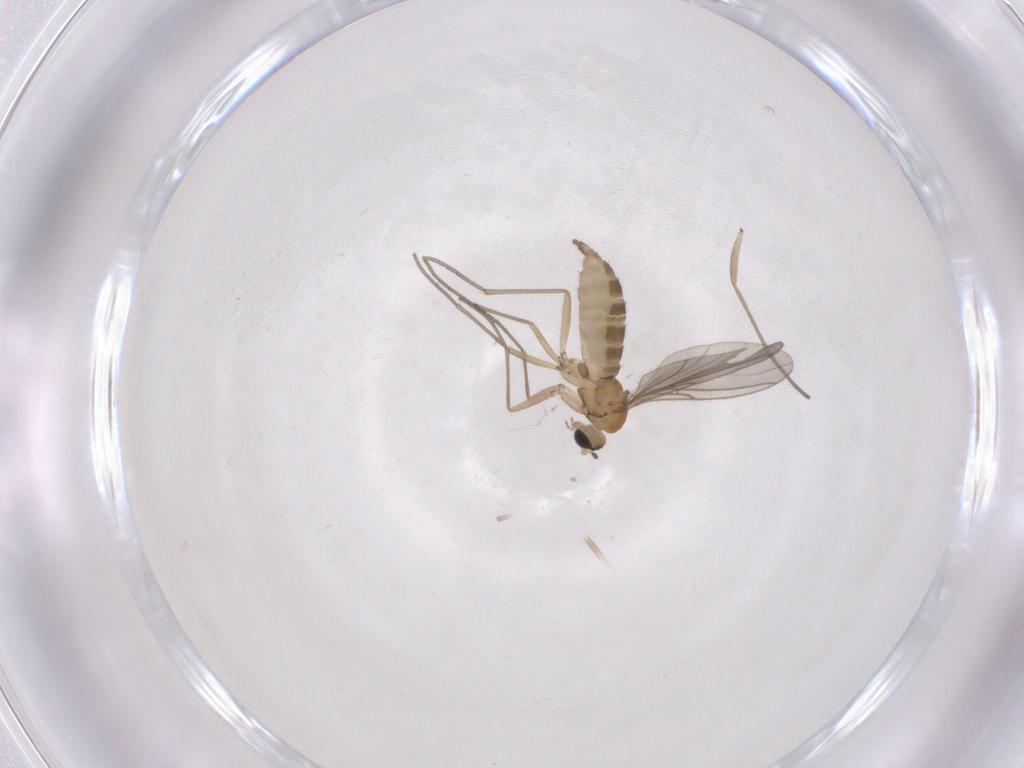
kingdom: Animalia
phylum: Arthropoda
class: Insecta
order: Diptera
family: Sciaridae
